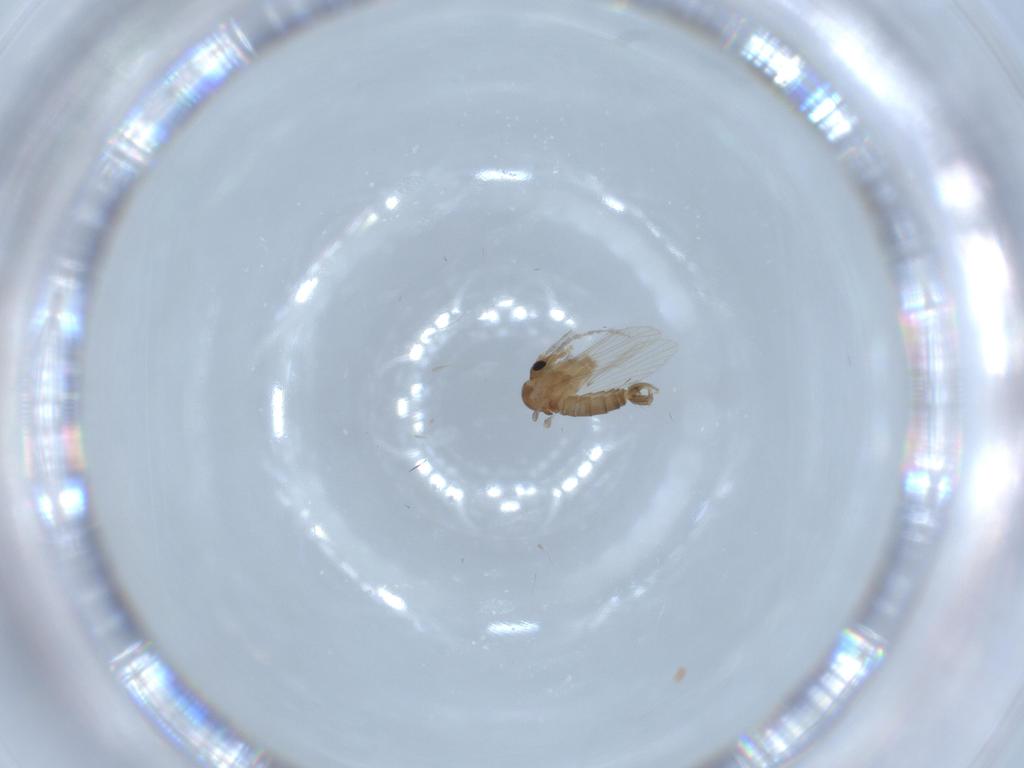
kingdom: Animalia
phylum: Arthropoda
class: Insecta
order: Diptera
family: Psychodidae
